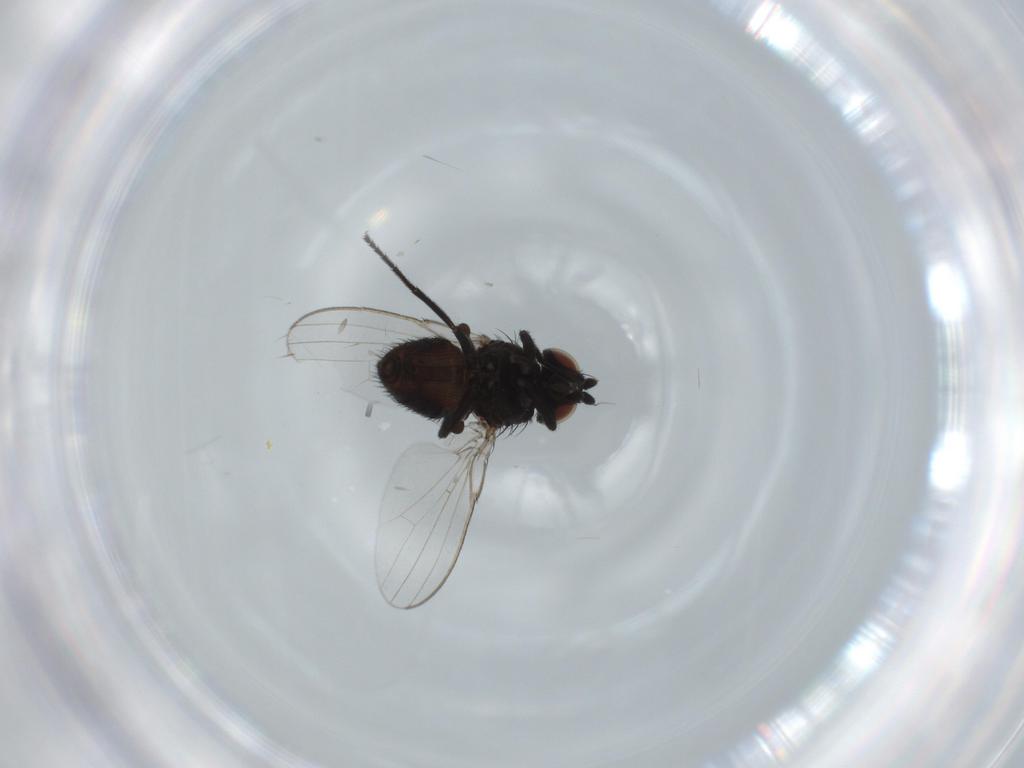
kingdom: Animalia
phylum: Arthropoda
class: Insecta
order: Diptera
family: Milichiidae
